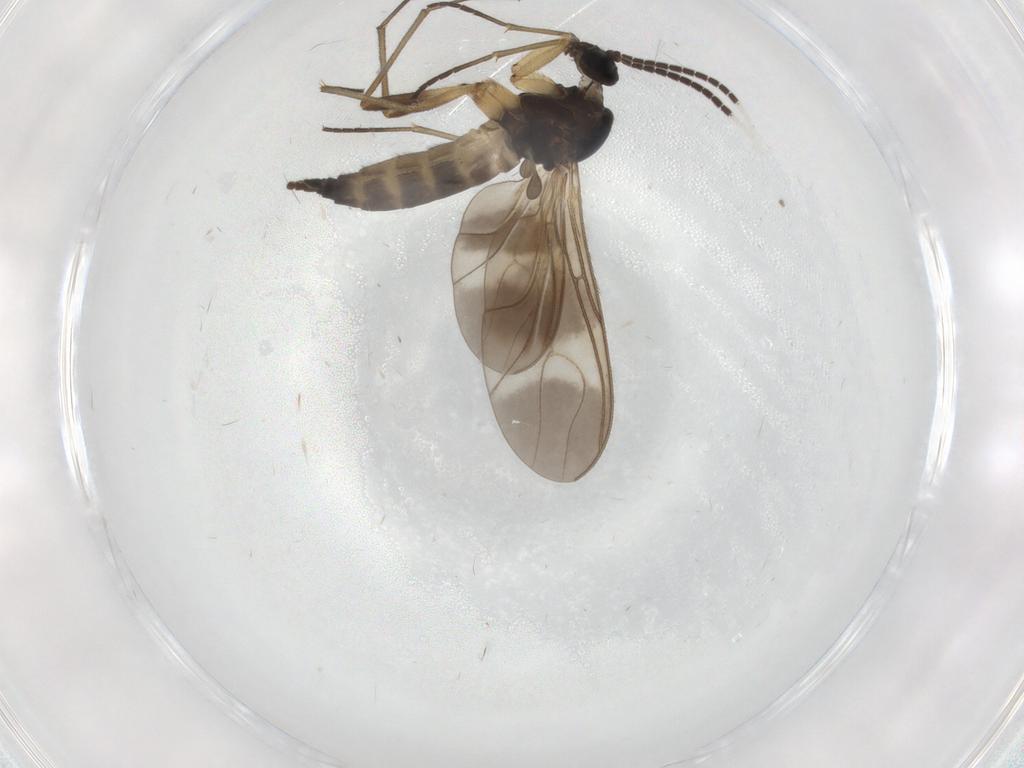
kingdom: Animalia
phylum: Arthropoda
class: Insecta
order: Diptera
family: Sciaridae
